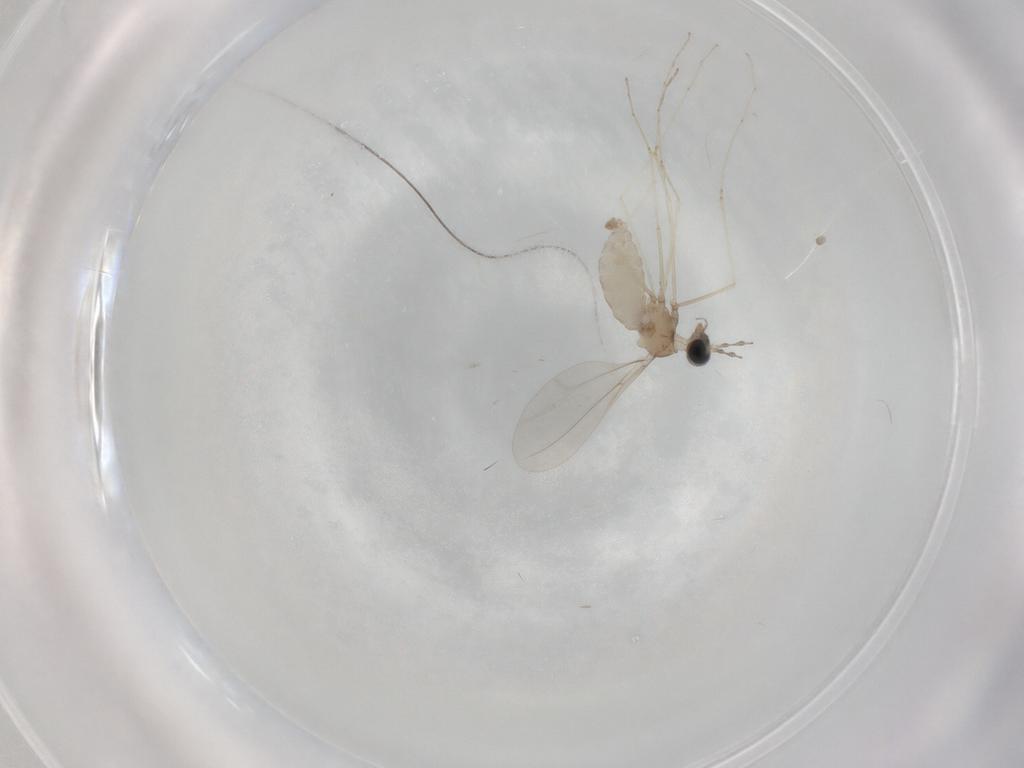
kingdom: Animalia
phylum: Arthropoda
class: Insecta
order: Diptera
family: Cecidomyiidae
